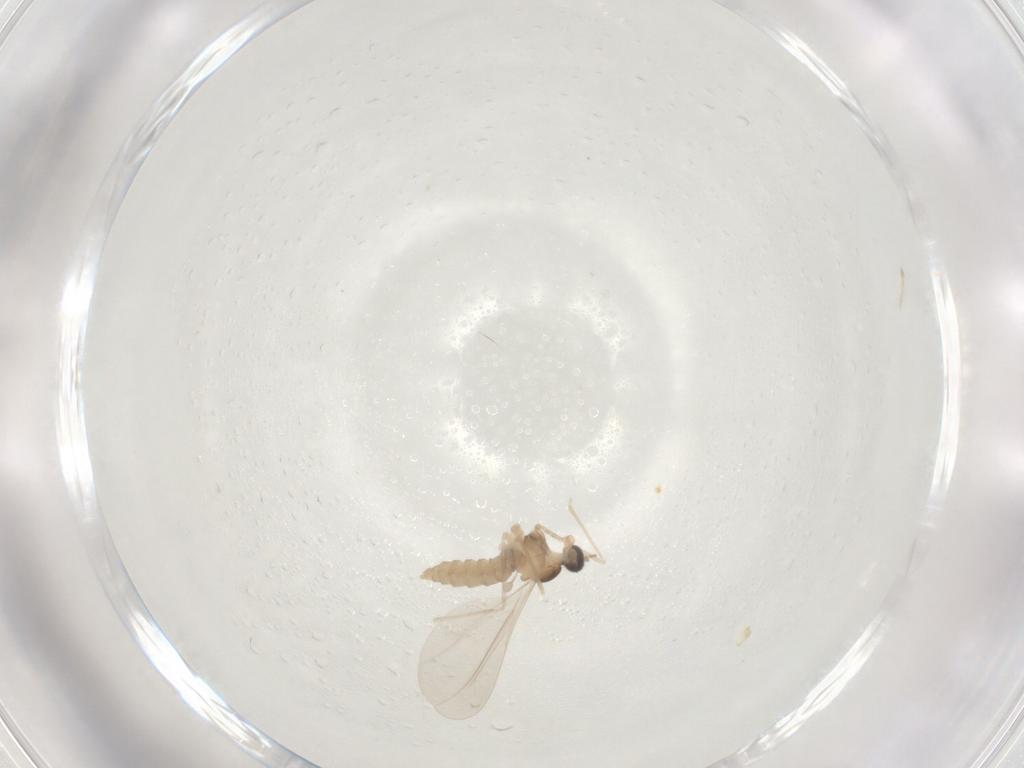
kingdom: Animalia
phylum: Arthropoda
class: Insecta
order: Diptera
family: Cecidomyiidae
